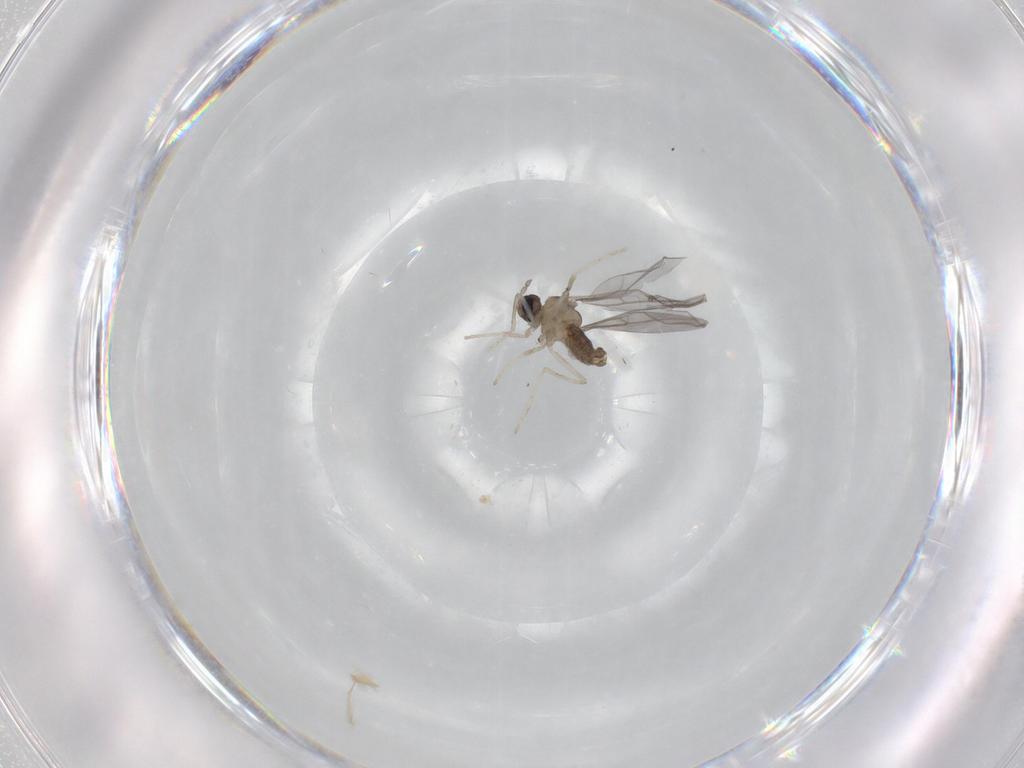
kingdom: Animalia
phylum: Arthropoda
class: Insecta
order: Diptera
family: Cecidomyiidae
